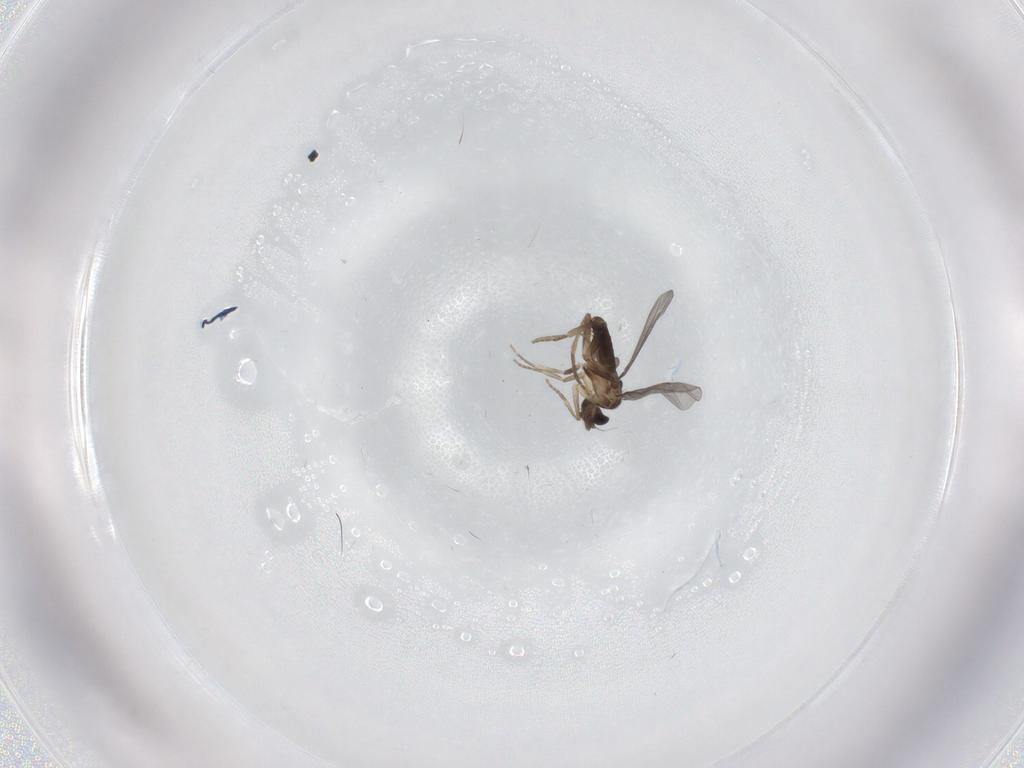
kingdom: Animalia
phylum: Arthropoda
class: Insecta
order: Diptera
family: Cecidomyiidae
